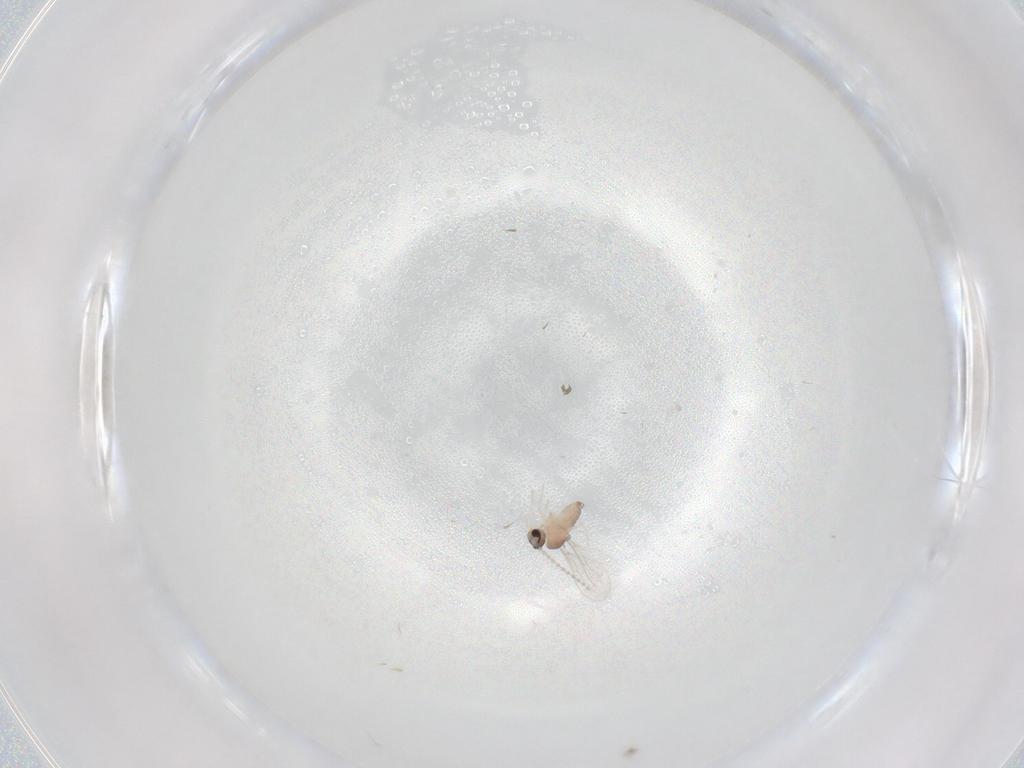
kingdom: Animalia
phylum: Arthropoda
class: Insecta
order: Diptera
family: Cecidomyiidae
